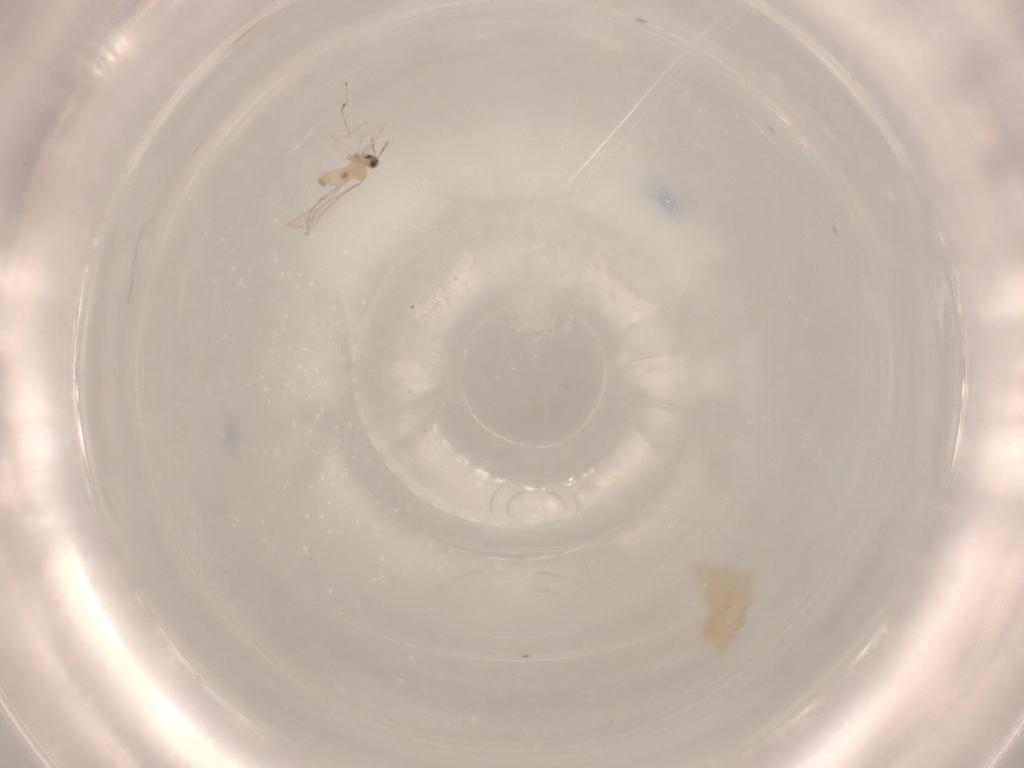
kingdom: Animalia
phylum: Arthropoda
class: Insecta
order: Diptera
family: Cecidomyiidae
